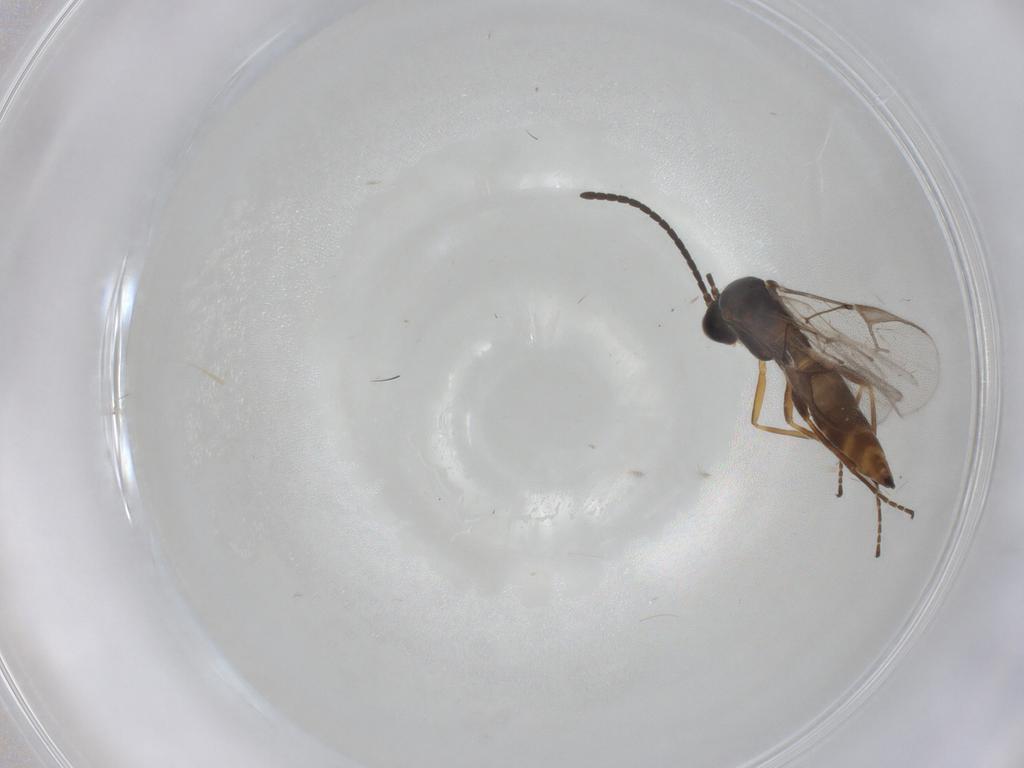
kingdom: Animalia
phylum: Arthropoda
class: Insecta
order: Hymenoptera
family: Braconidae
